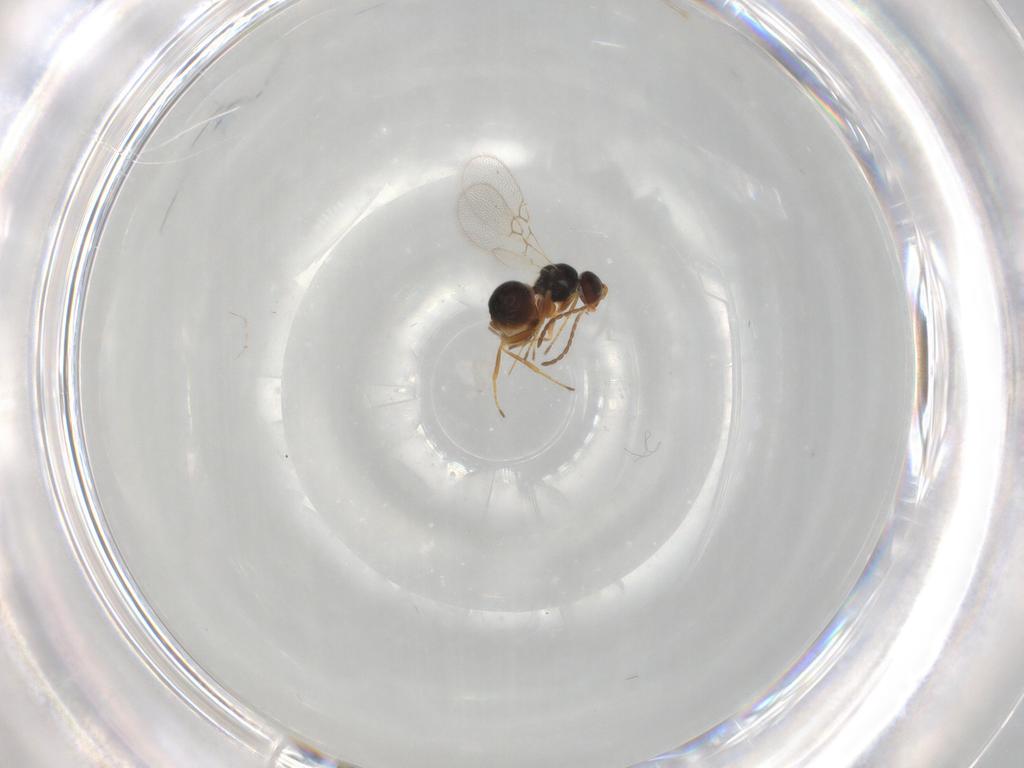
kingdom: Animalia
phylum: Arthropoda
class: Insecta
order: Hymenoptera
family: Figitidae
